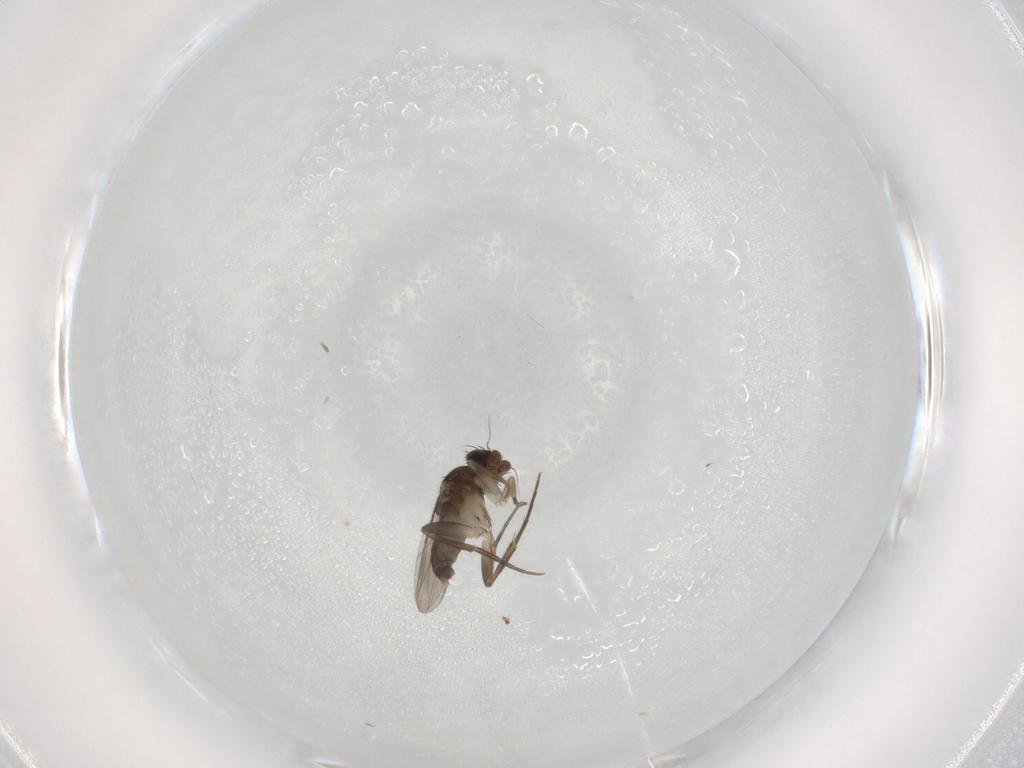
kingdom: Animalia
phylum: Arthropoda
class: Insecta
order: Diptera
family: Phoridae
